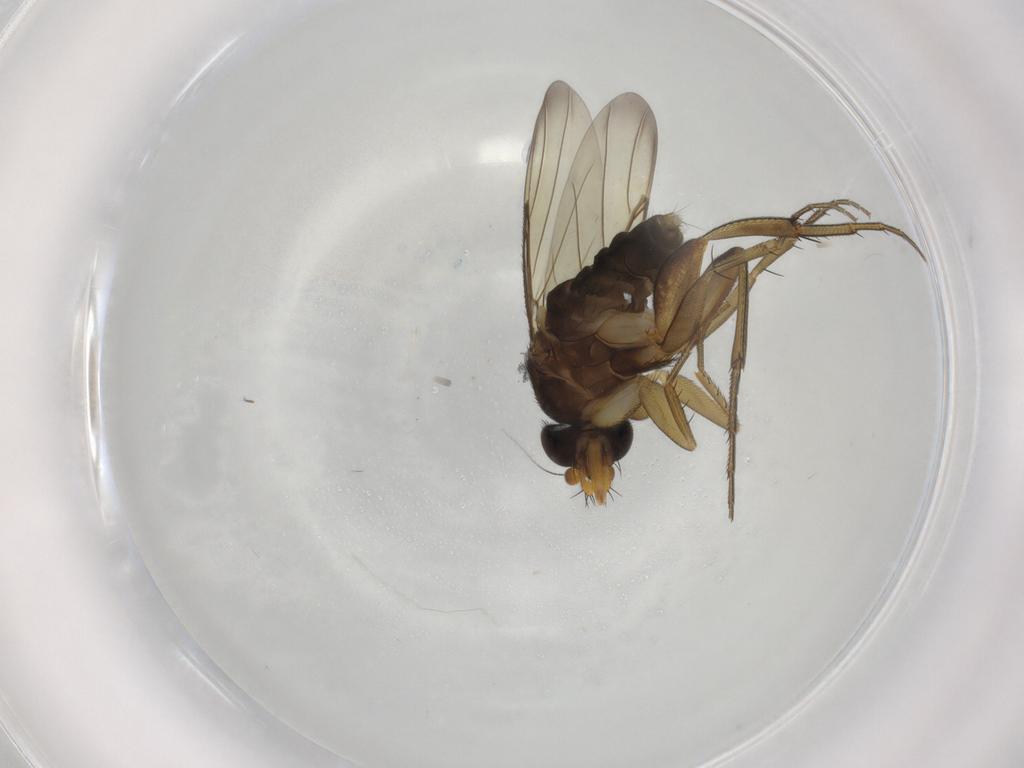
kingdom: Animalia
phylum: Arthropoda
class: Insecta
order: Diptera
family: Phoridae
